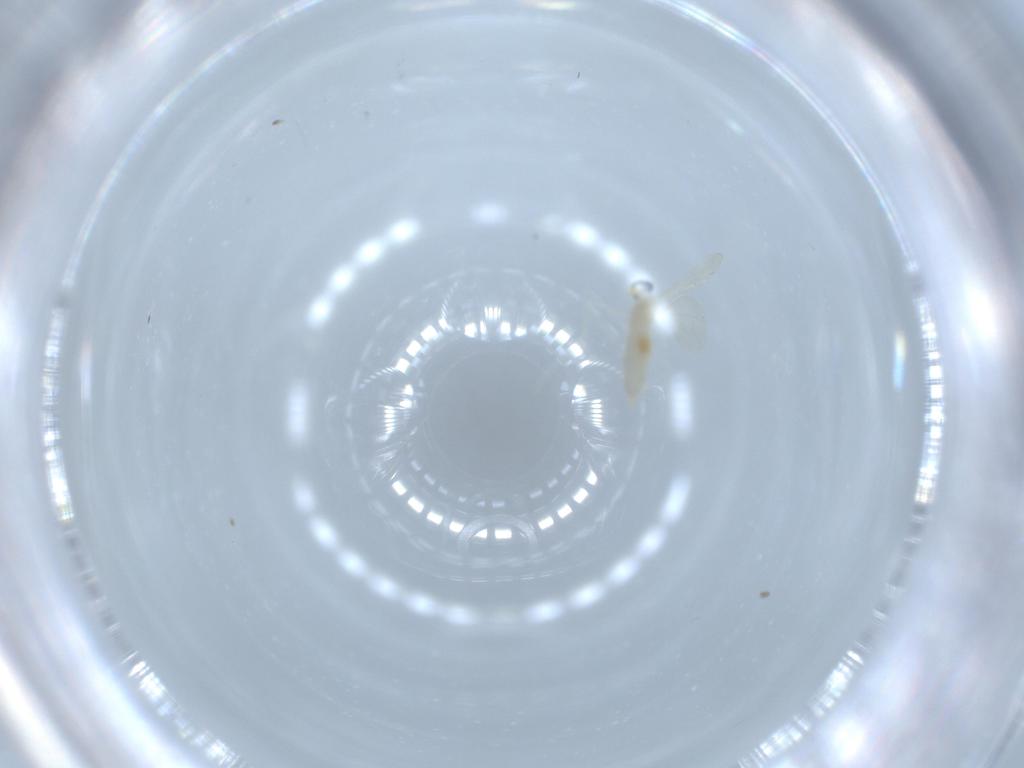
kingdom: Animalia
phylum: Arthropoda
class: Insecta
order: Diptera
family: Cecidomyiidae
